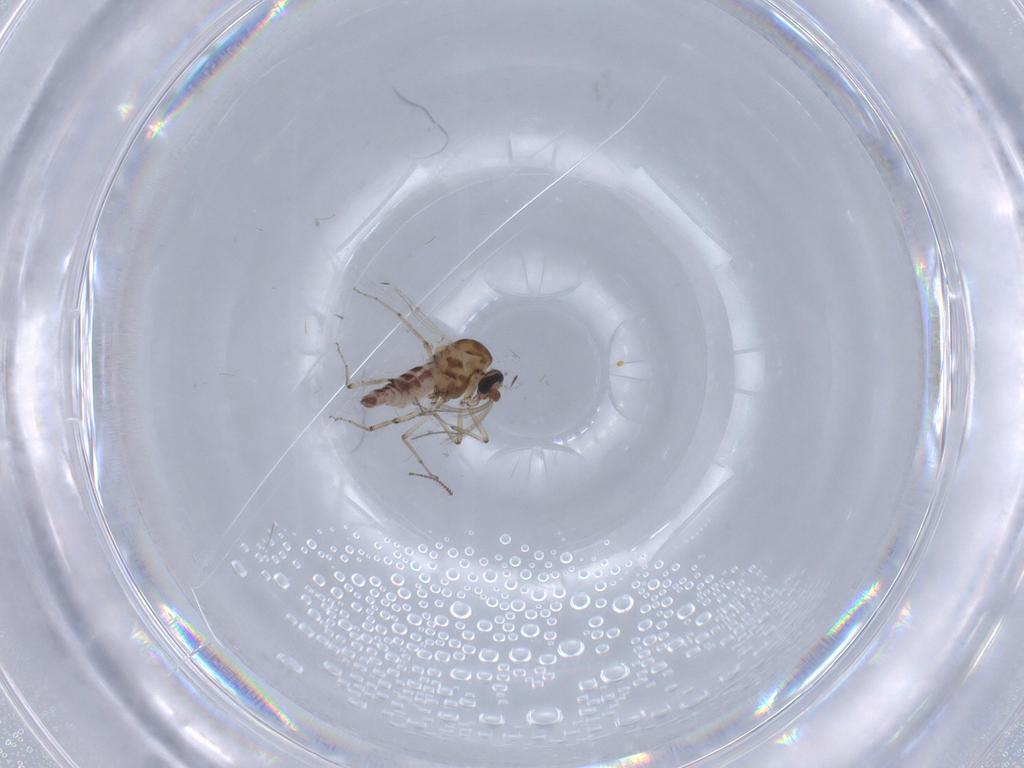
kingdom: Animalia
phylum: Arthropoda
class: Insecta
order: Diptera
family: Ceratopogonidae
